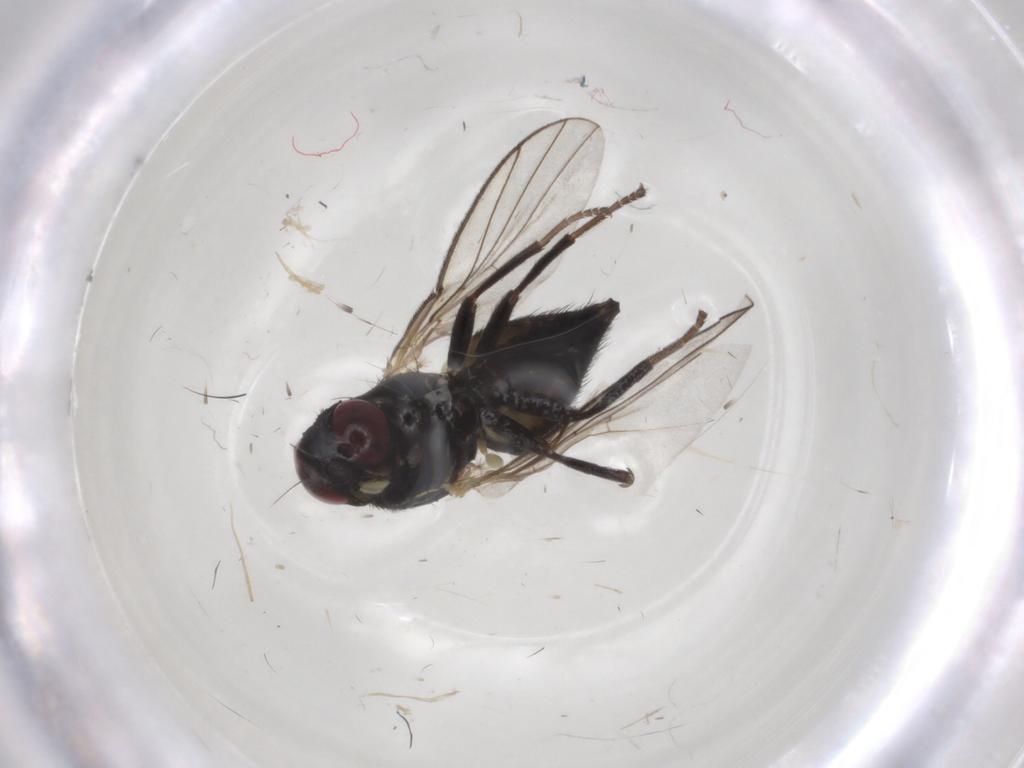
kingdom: Animalia
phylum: Arthropoda
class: Insecta
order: Diptera
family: Agromyzidae
